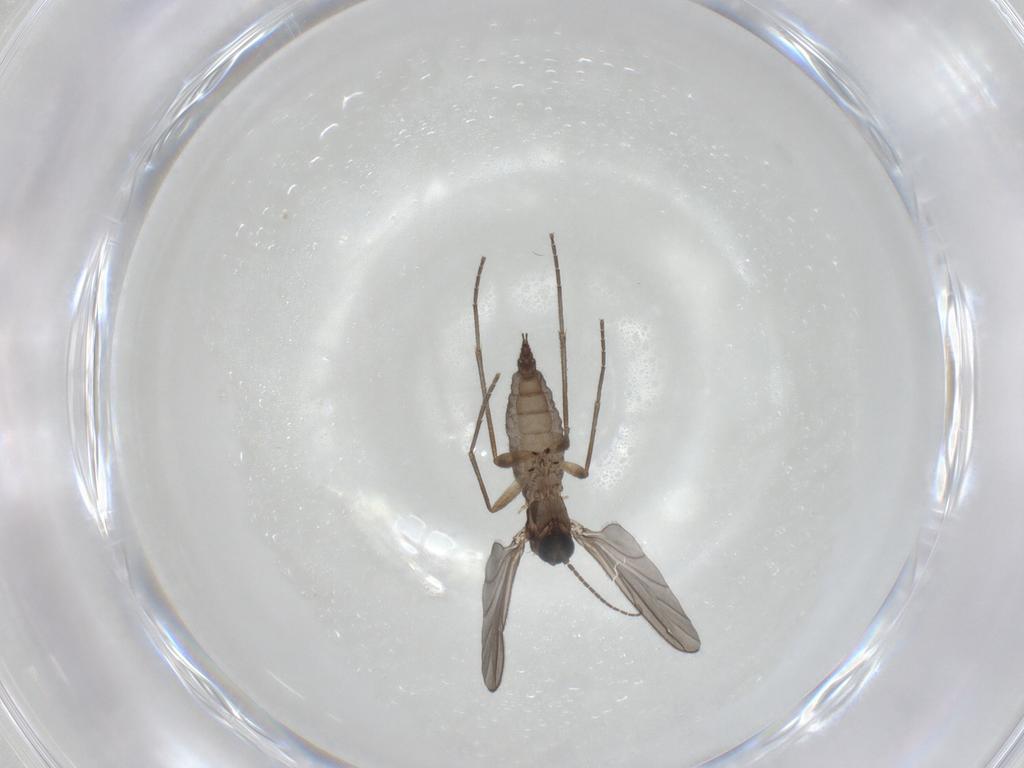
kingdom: Animalia
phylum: Arthropoda
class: Insecta
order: Diptera
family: Sciaridae
